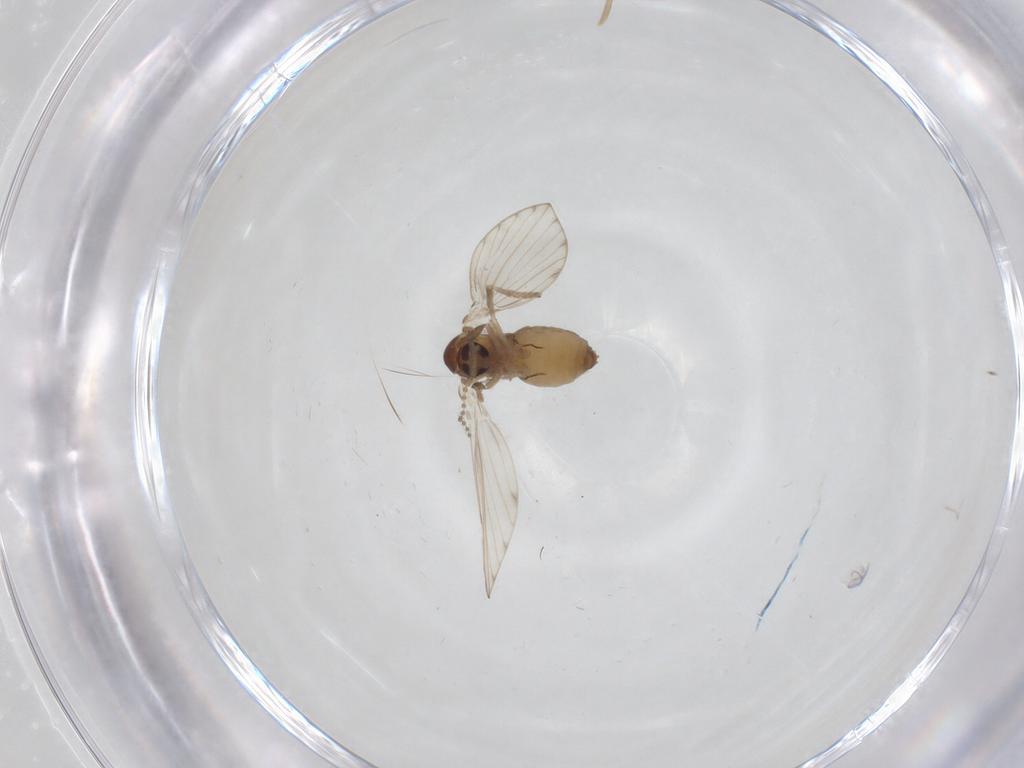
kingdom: Animalia
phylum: Arthropoda
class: Insecta
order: Diptera
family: Psychodidae
